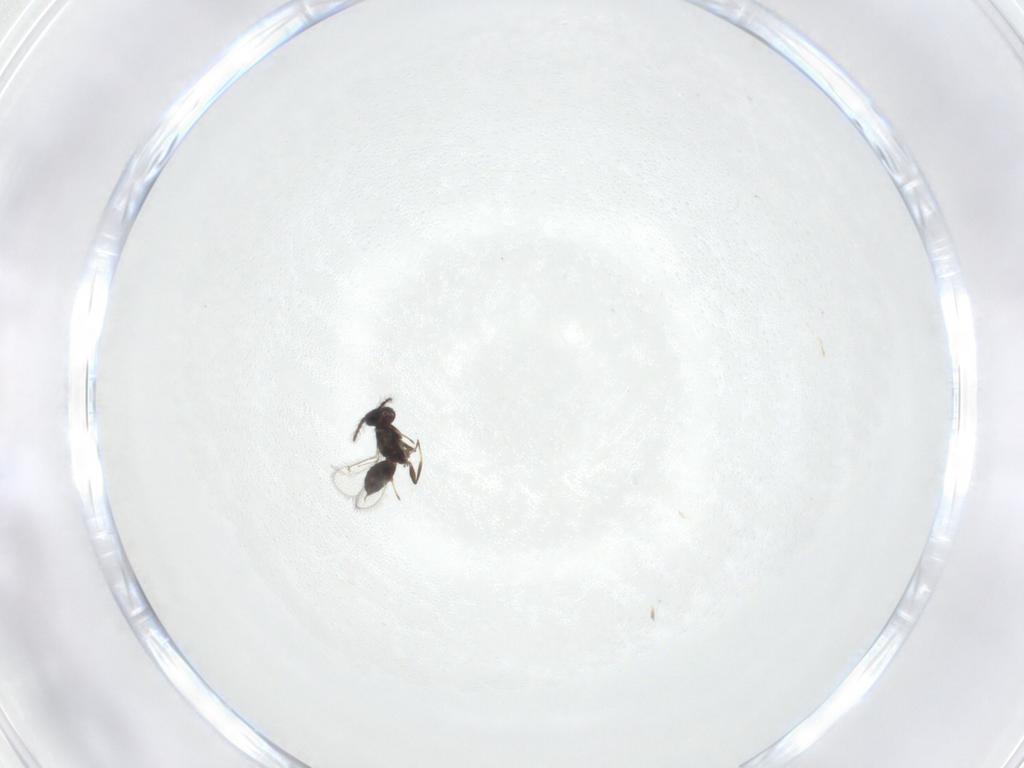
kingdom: Animalia
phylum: Arthropoda
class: Insecta
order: Hymenoptera
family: Eulophidae
